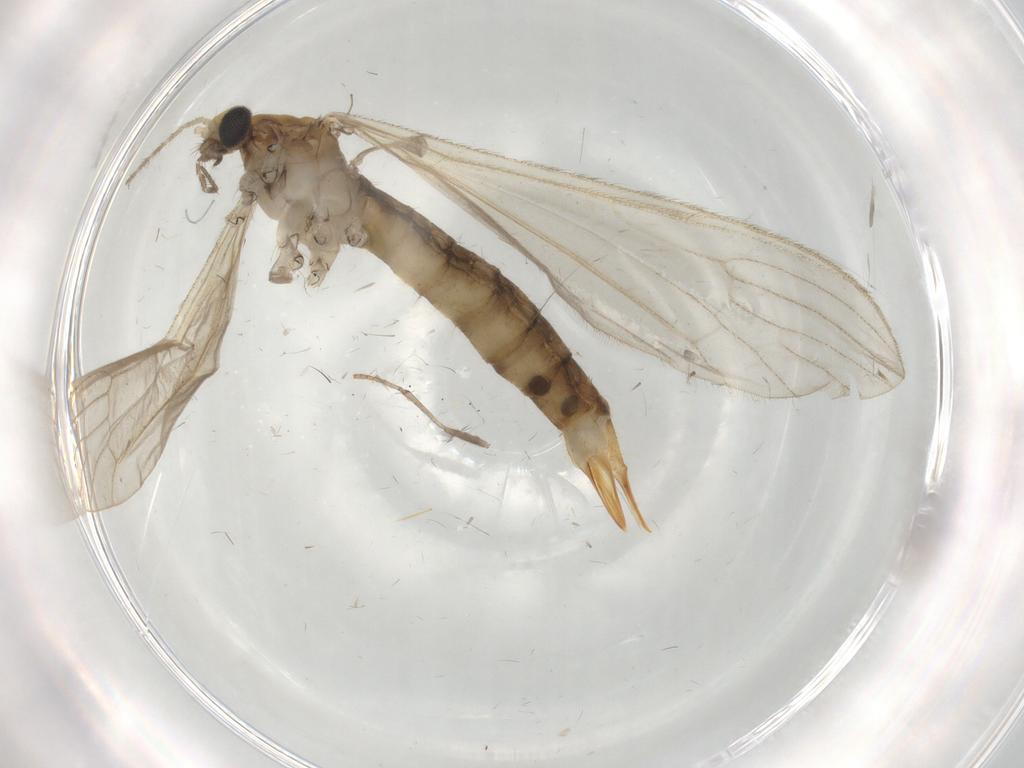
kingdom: Animalia
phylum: Arthropoda
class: Insecta
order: Diptera
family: Limoniidae
